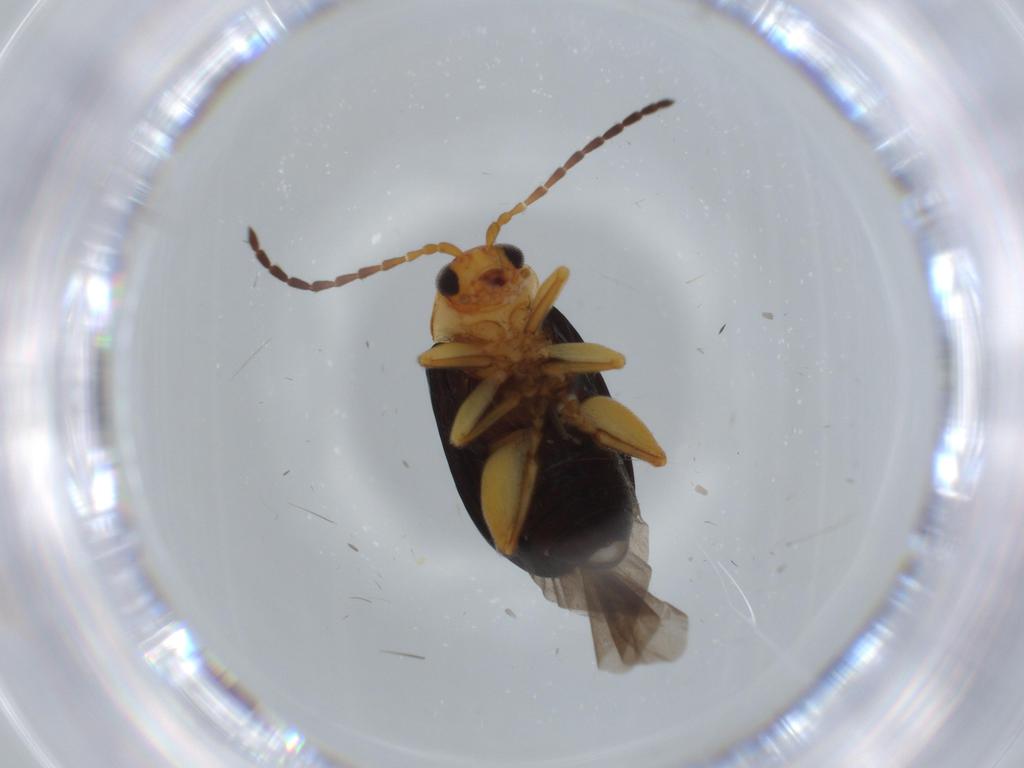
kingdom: Animalia
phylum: Arthropoda
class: Insecta
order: Coleoptera
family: Chrysomelidae
